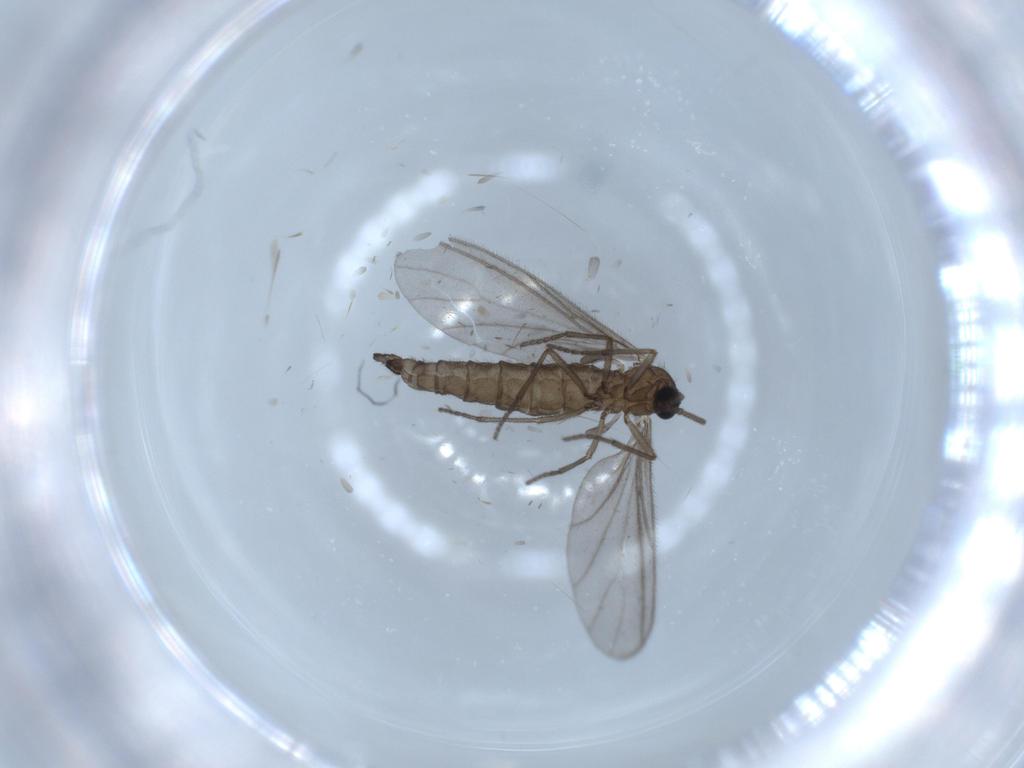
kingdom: Animalia
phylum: Arthropoda
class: Insecta
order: Diptera
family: Sciaridae
